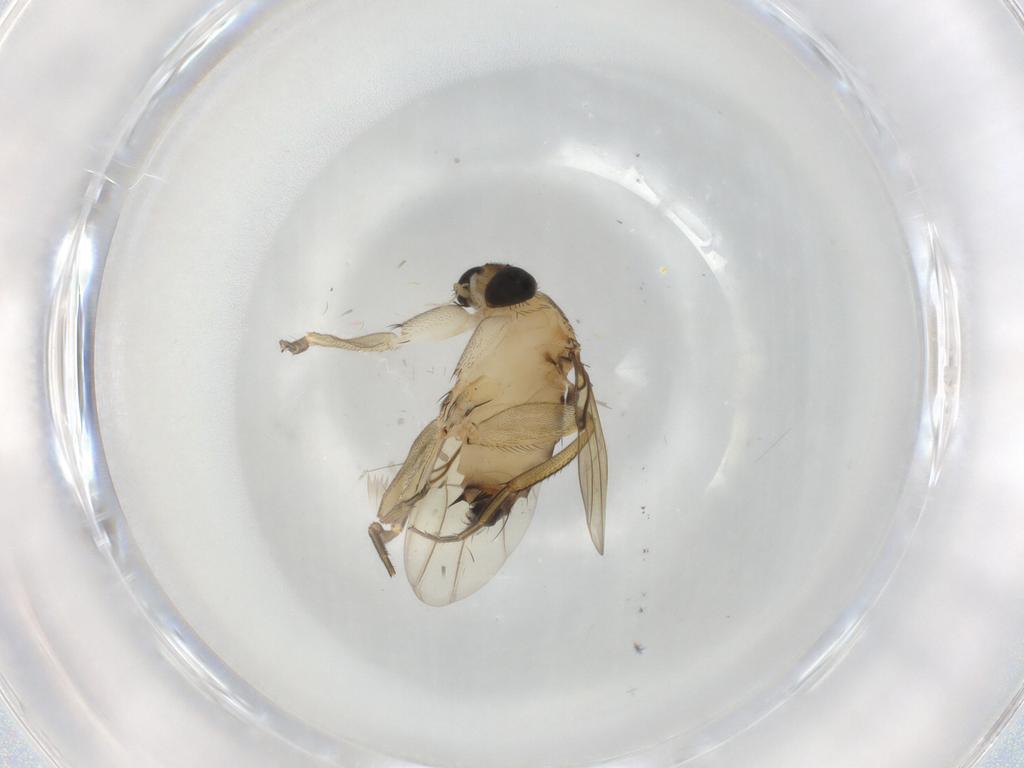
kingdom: Animalia
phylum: Arthropoda
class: Insecta
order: Diptera
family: Phoridae
